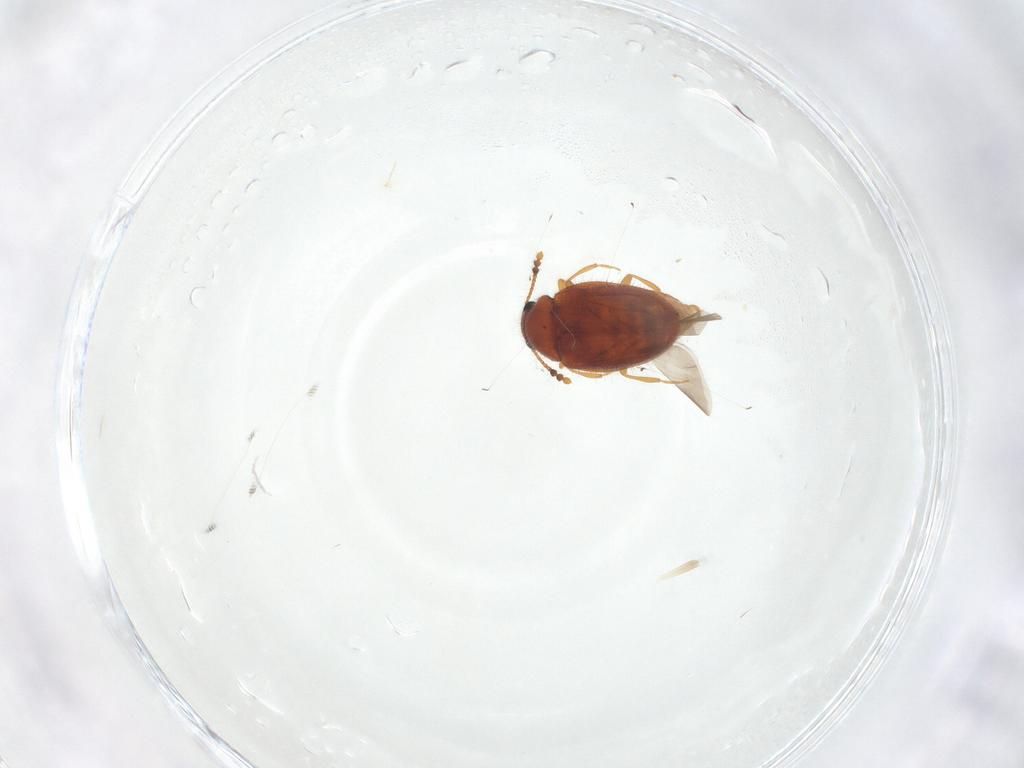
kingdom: Animalia
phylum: Arthropoda
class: Insecta
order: Coleoptera
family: Erotylidae
